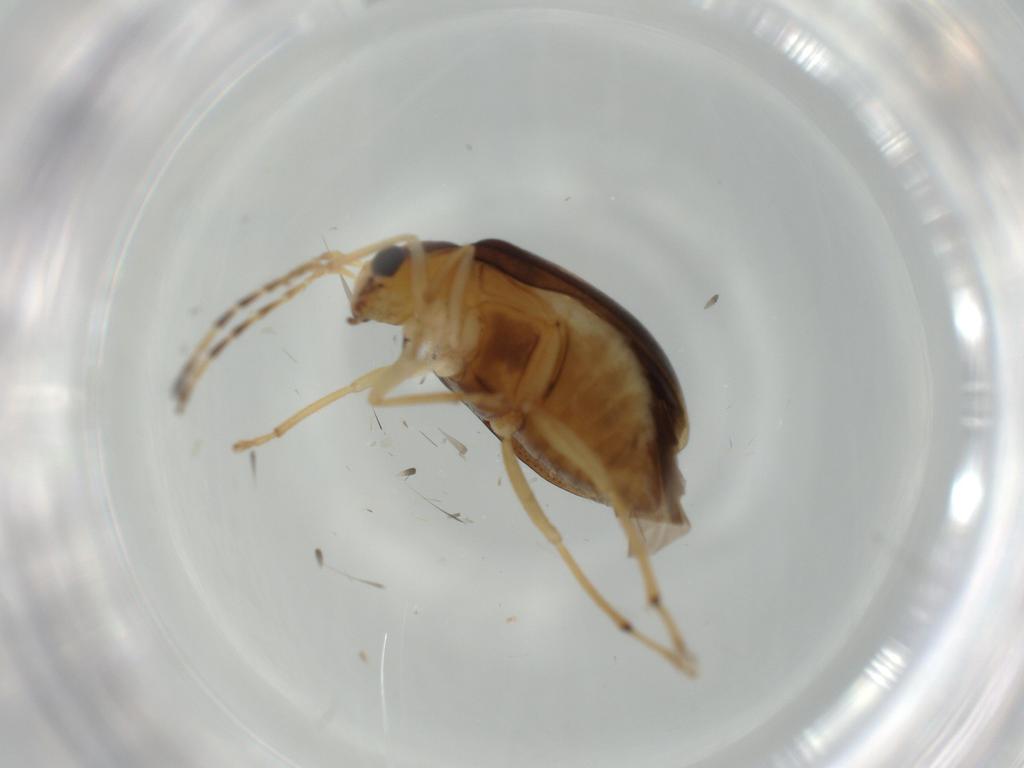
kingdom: Animalia
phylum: Arthropoda
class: Insecta
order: Coleoptera
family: Chrysomelidae
